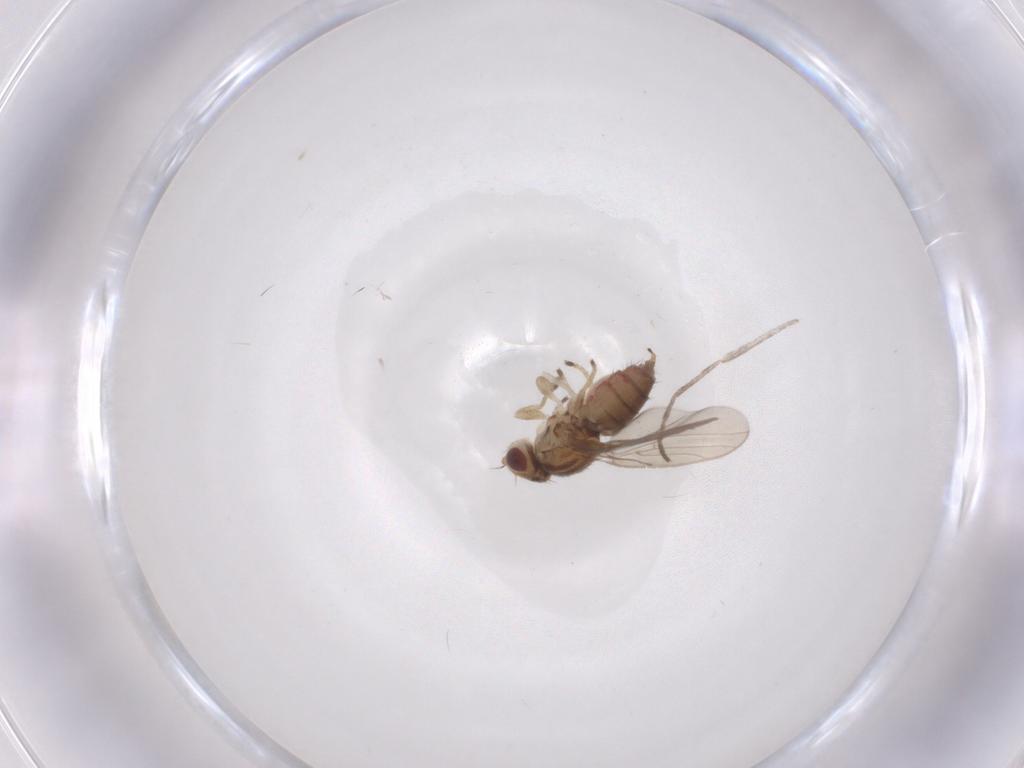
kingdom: Animalia
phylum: Arthropoda
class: Insecta
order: Diptera
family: Chloropidae
